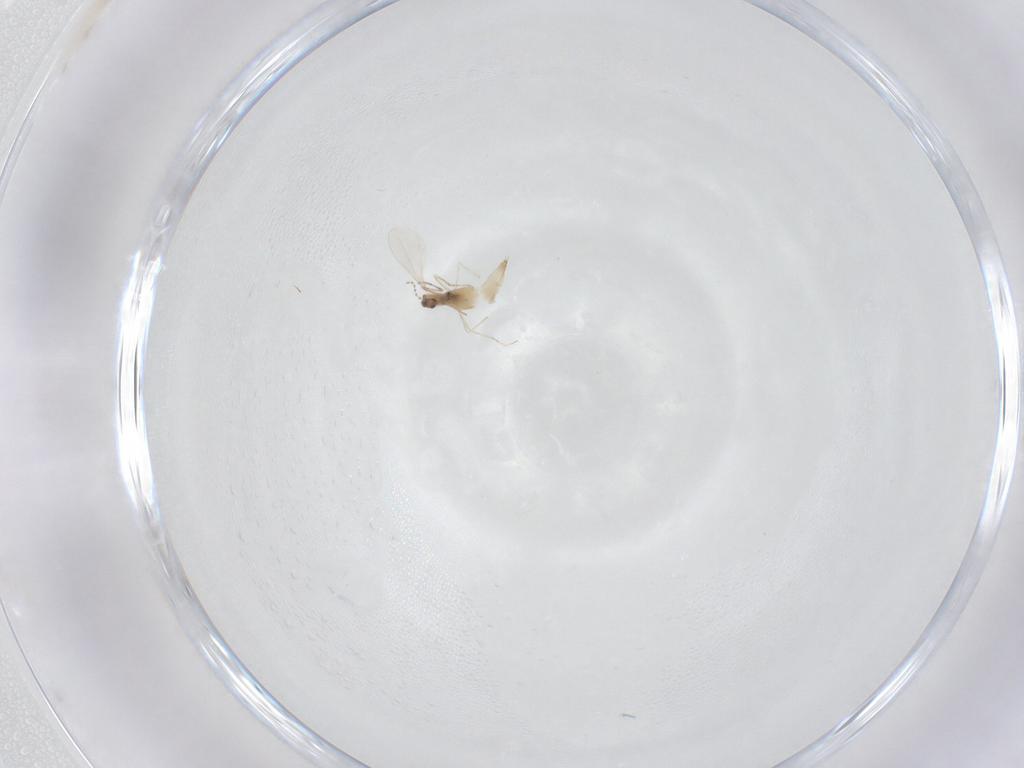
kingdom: Animalia
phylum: Arthropoda
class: Insecta
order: Diptera
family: Cecidomyiidae
